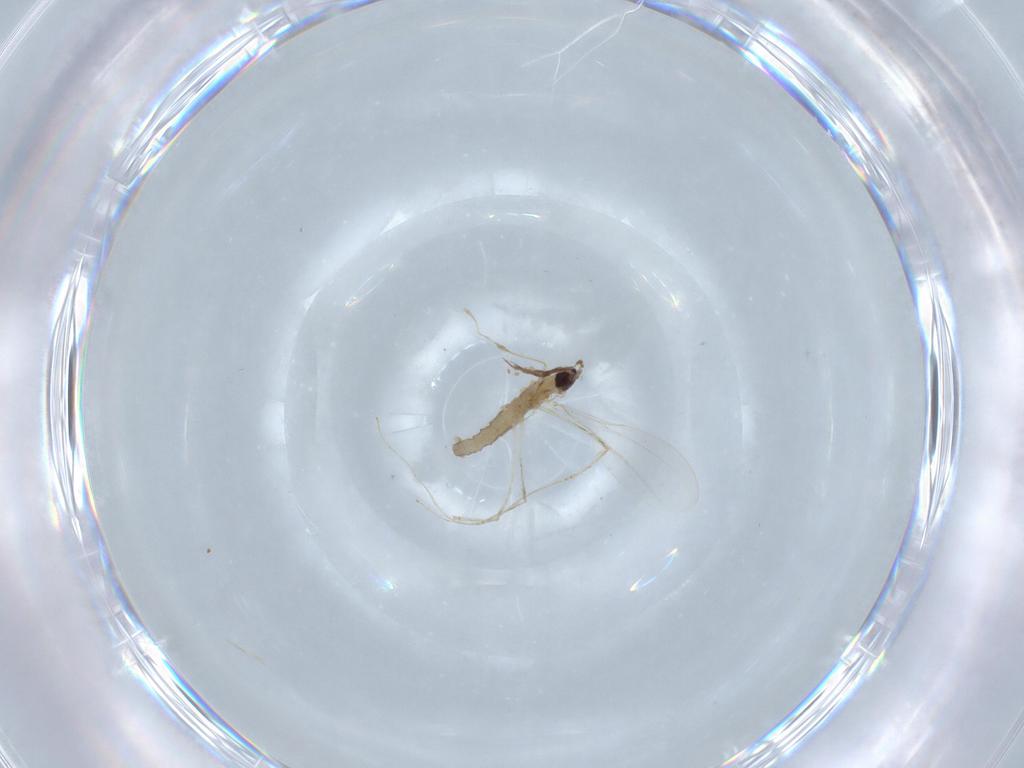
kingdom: Animalia
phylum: Arthropoda
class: Insecta
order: Diptera
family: Cecidomyiidae
